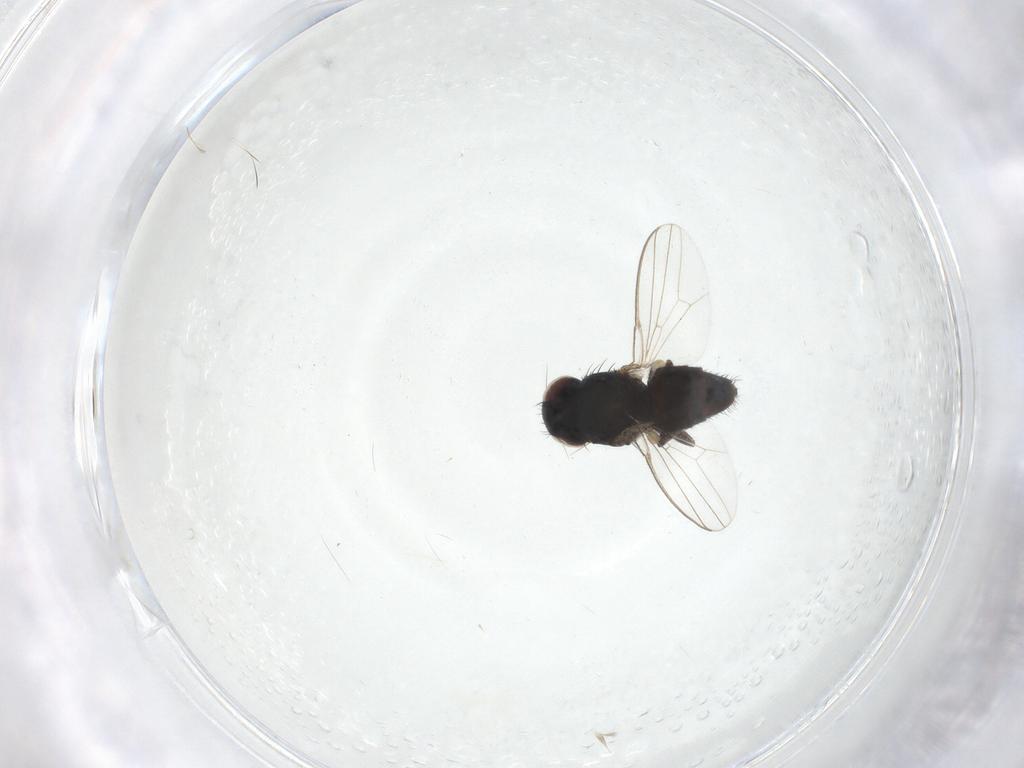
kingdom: Animalia
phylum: Arthropoda
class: Insecta
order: Diptera
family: Chloropidae
